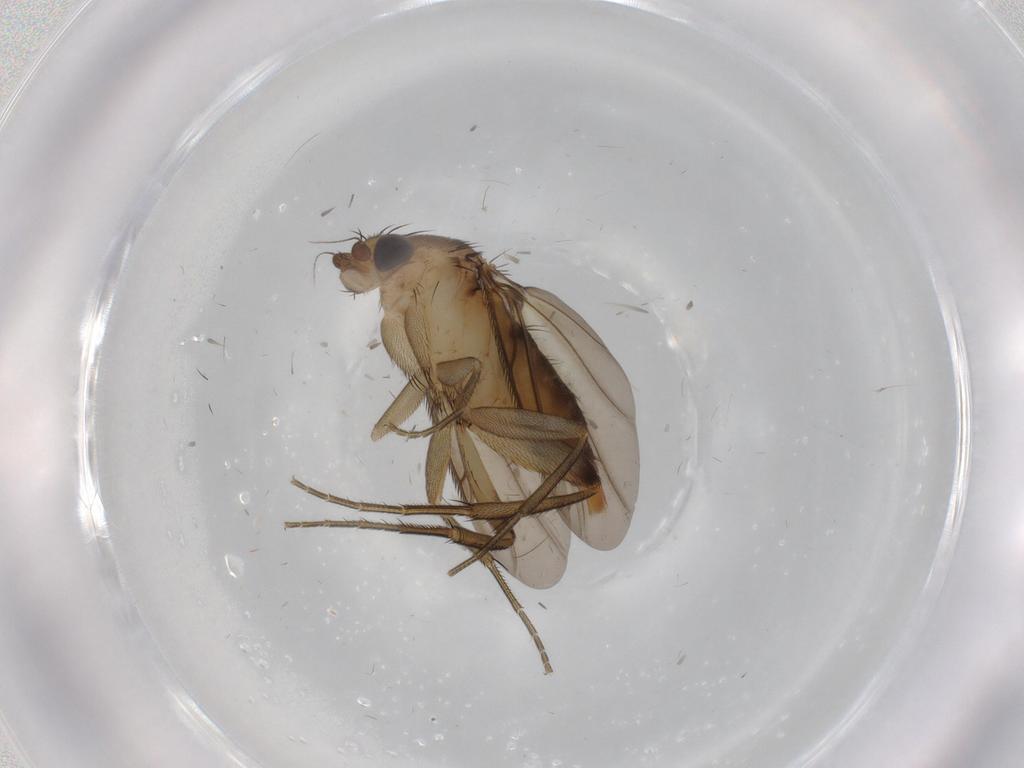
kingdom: Animalia
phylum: Arthropoda
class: Insecta
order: Diptera
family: Phoridae
